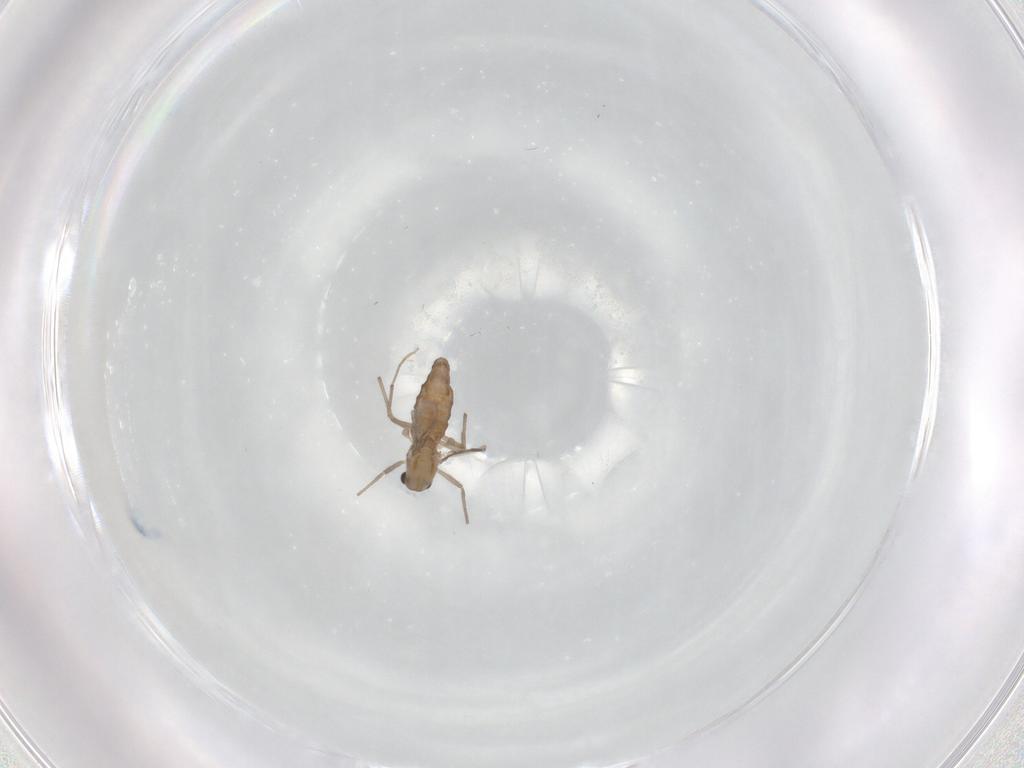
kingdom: Animalia
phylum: Arthropoda
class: Insecta
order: Diptera
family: Chironomidae
